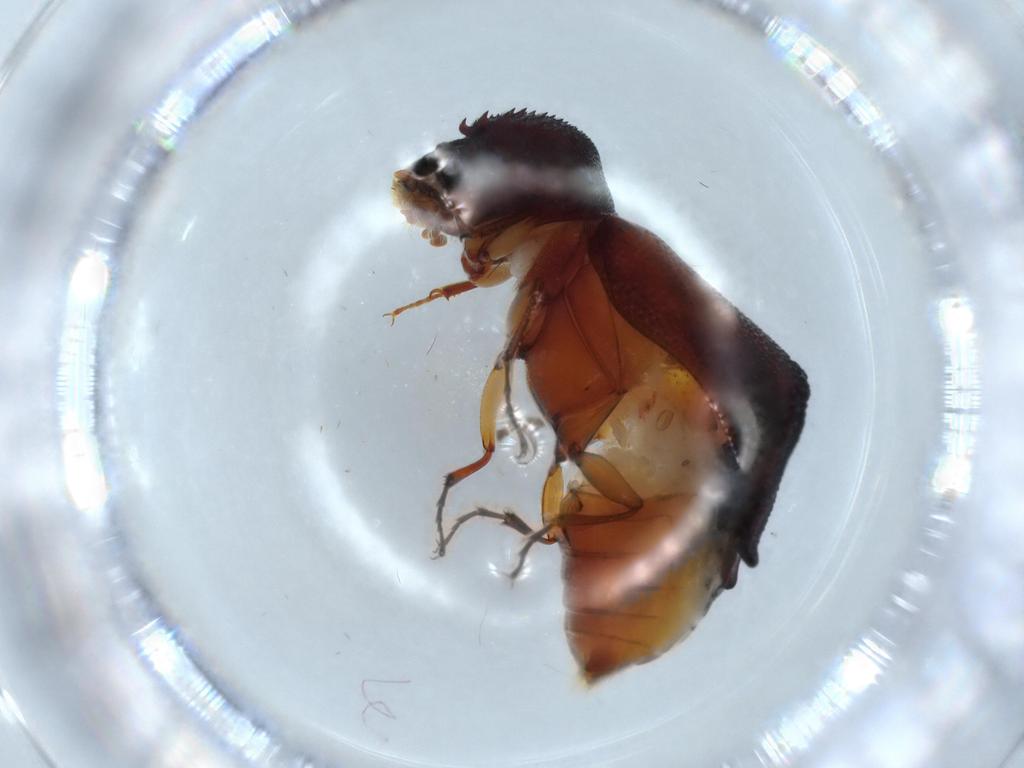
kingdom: Animalia
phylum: Arthropoda
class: Insecta
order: Coleoptera
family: Bostrichidae
